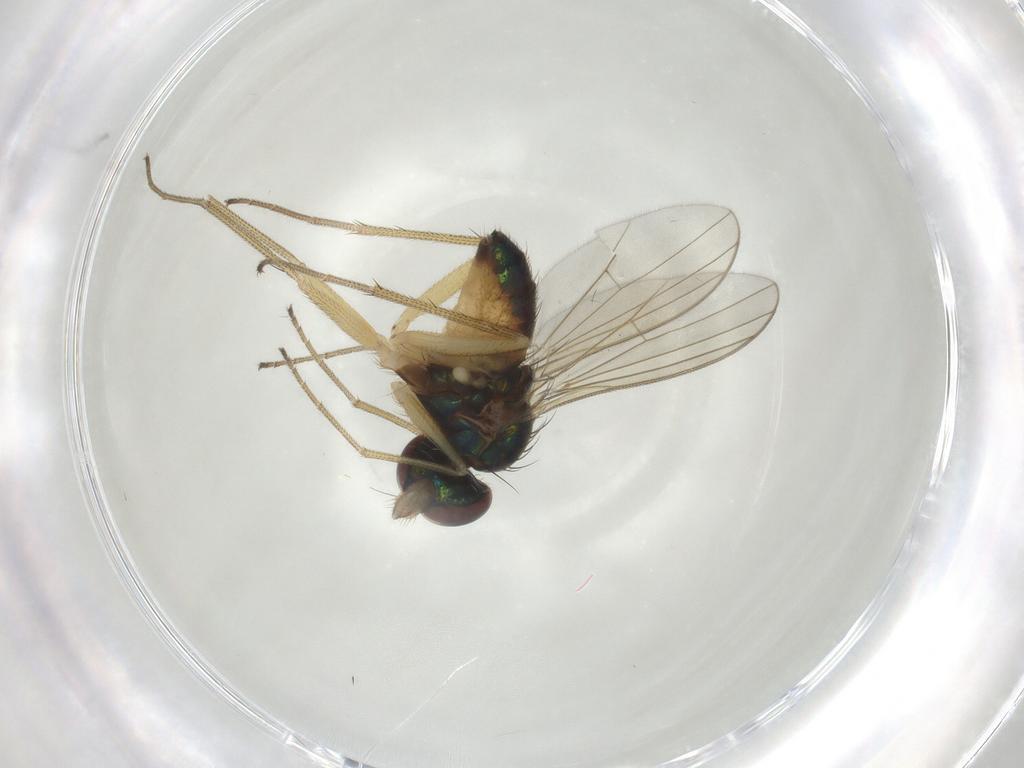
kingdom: Animalia
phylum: Arthropoda
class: Insecta
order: Diptera
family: Dolichopodidae
